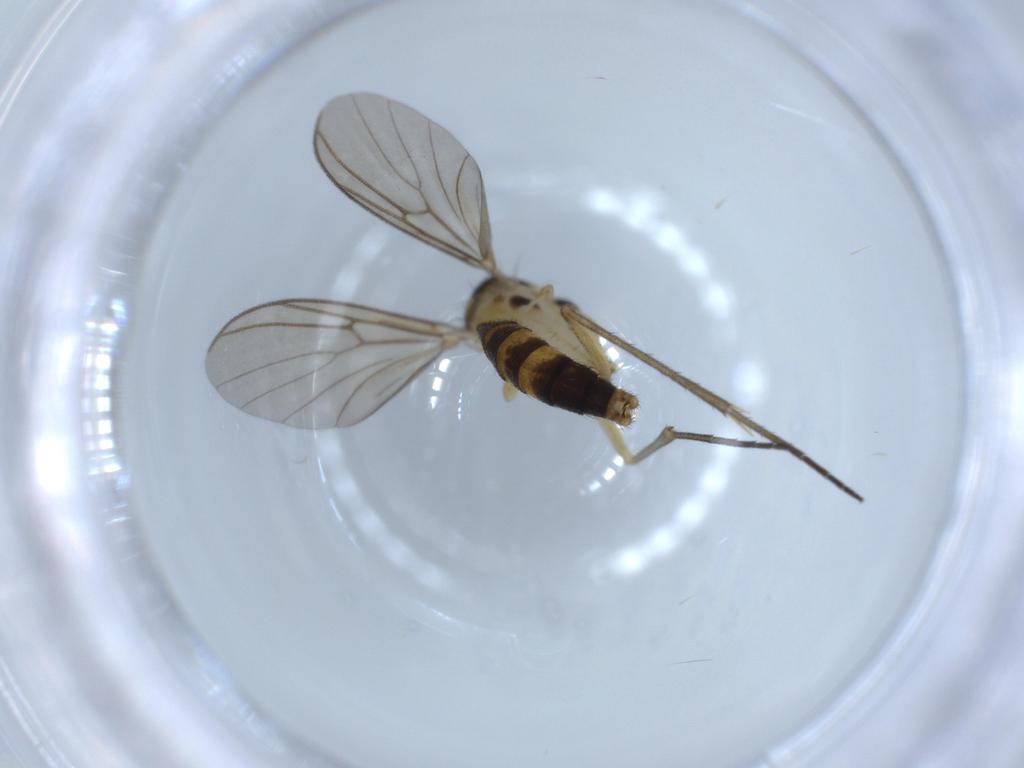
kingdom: Animalia
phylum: Arthropoda
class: Insecta
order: Diptera
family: Mycetophilidae
